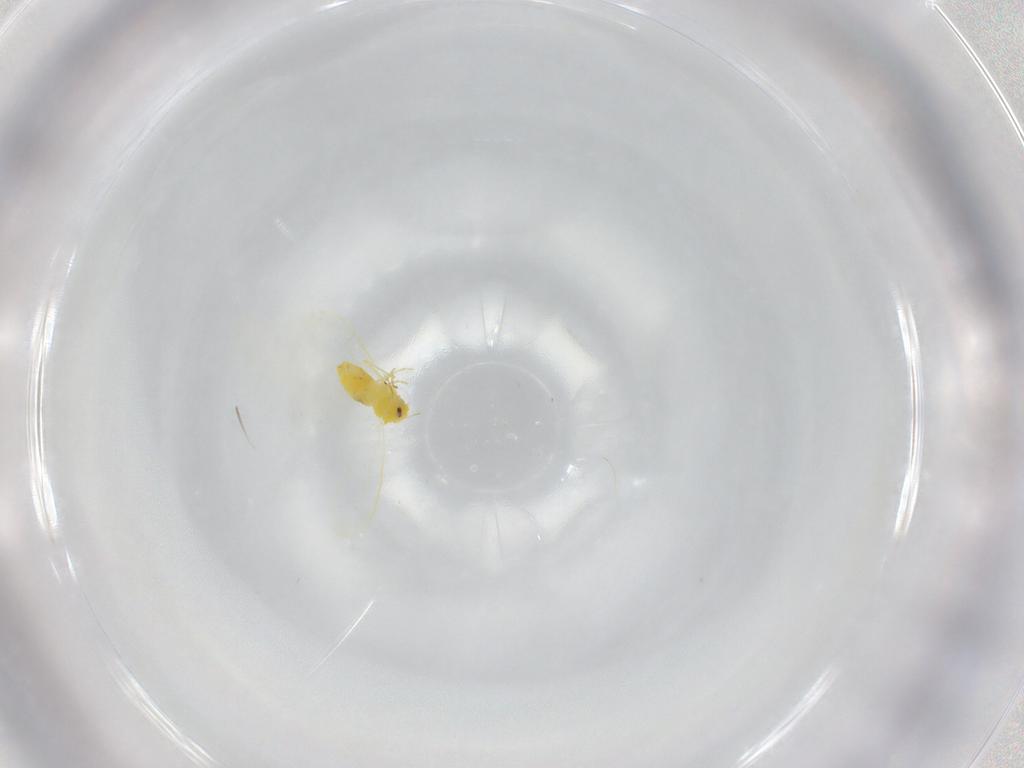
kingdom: Animalia
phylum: Arthropoda
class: Insecta
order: Hemiptera
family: Aleyrodidae
